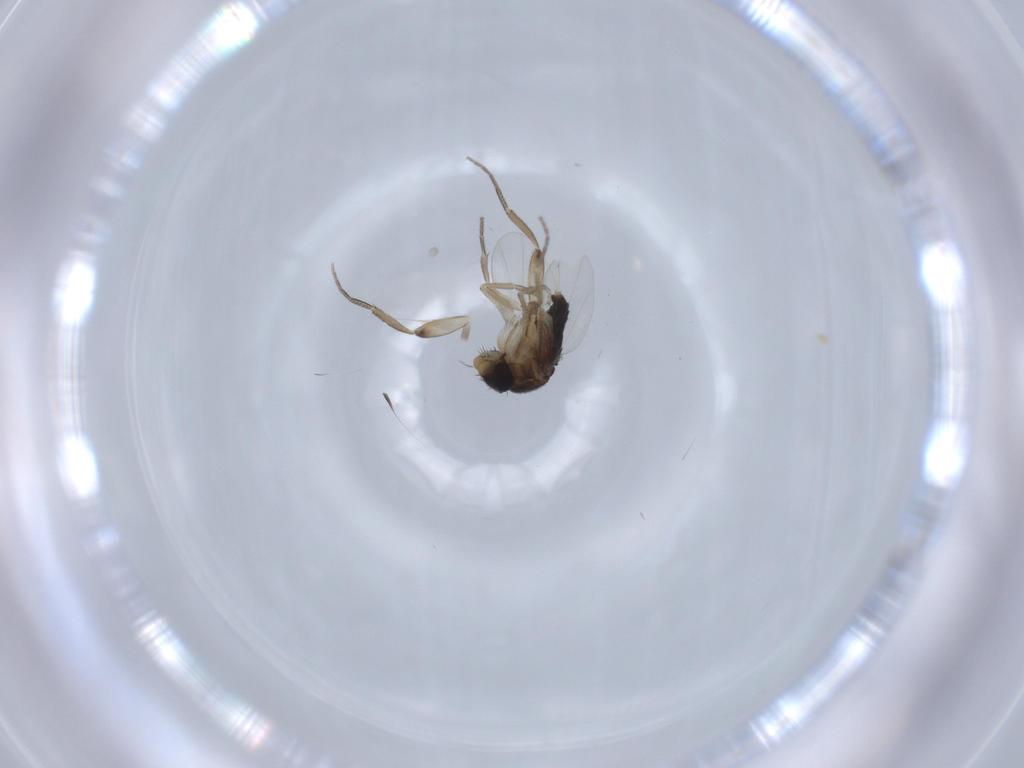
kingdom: Animalia
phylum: Arthropoda
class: Insecta
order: Diptera
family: Phoridae
